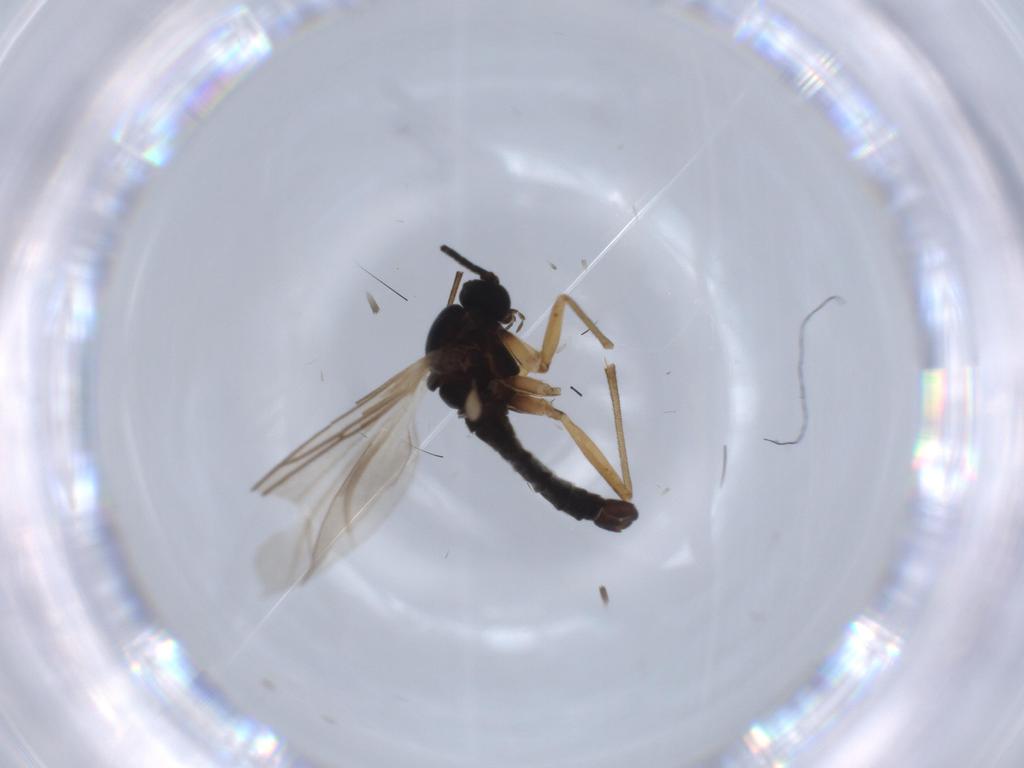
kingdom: Animalia
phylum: Arthropoda
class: Insecta
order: Diptera
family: Sciaridae
